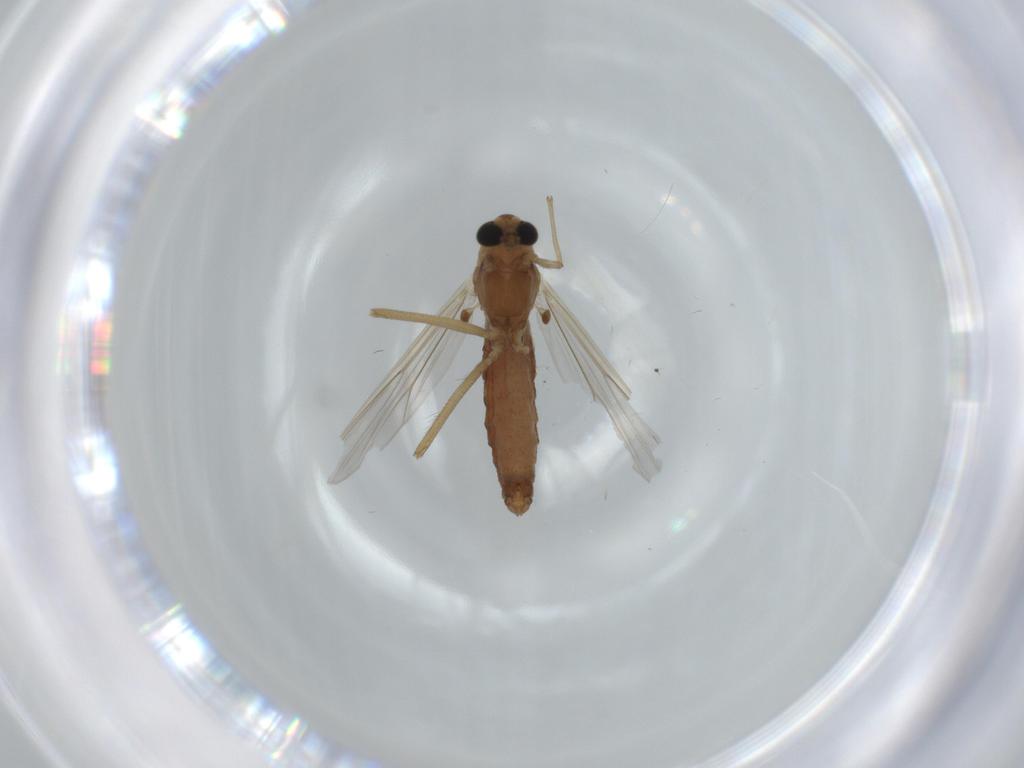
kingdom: Animalia
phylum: Arthropoda
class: Insecta
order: Diptera
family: Chironomidae
